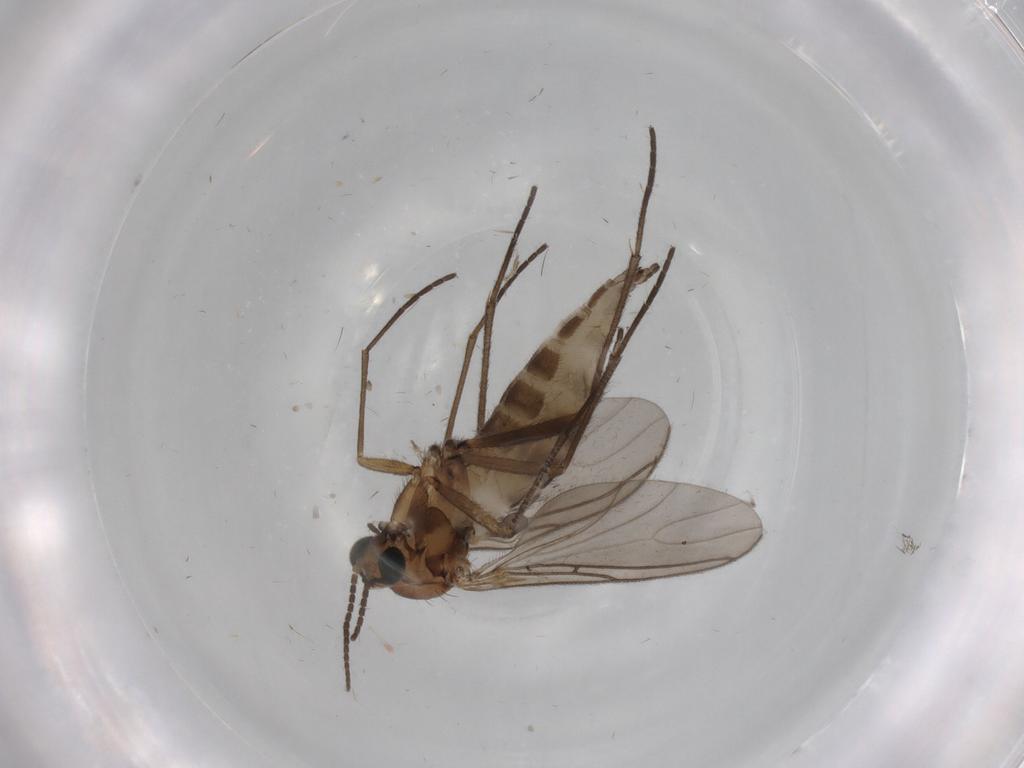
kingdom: Animalia
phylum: Arthropoda
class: Insecta
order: Diptera
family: Sciaridae
